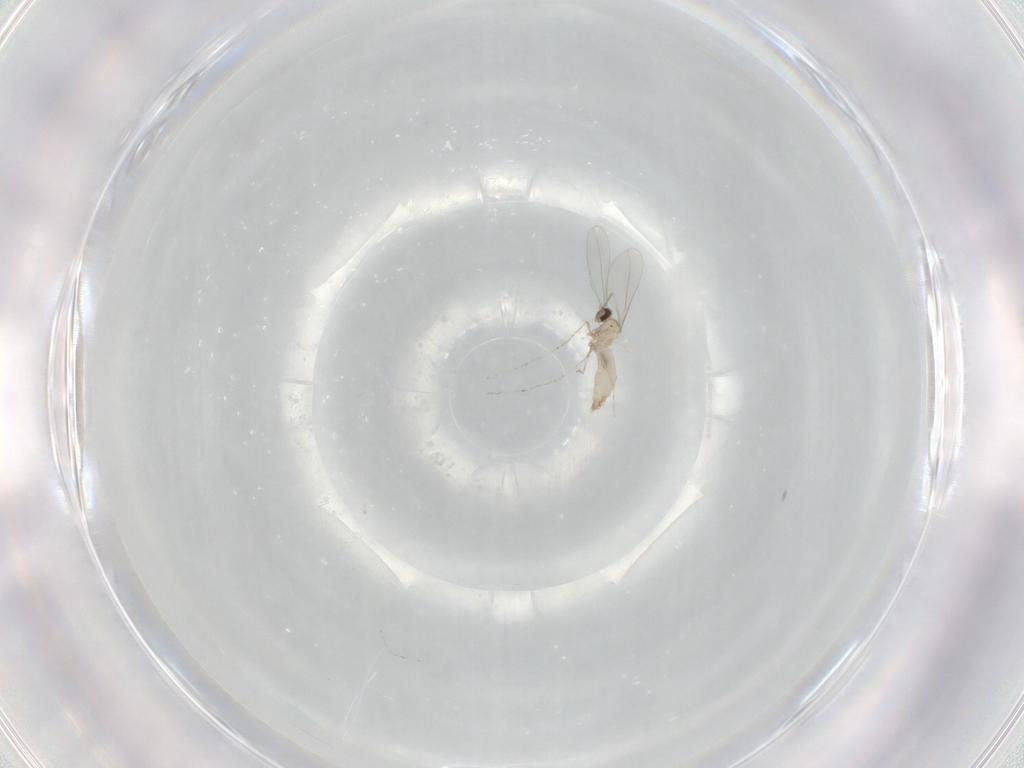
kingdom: Animalia
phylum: Arthropoda
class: Insecta
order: Diptera
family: Cecidomyiidae
